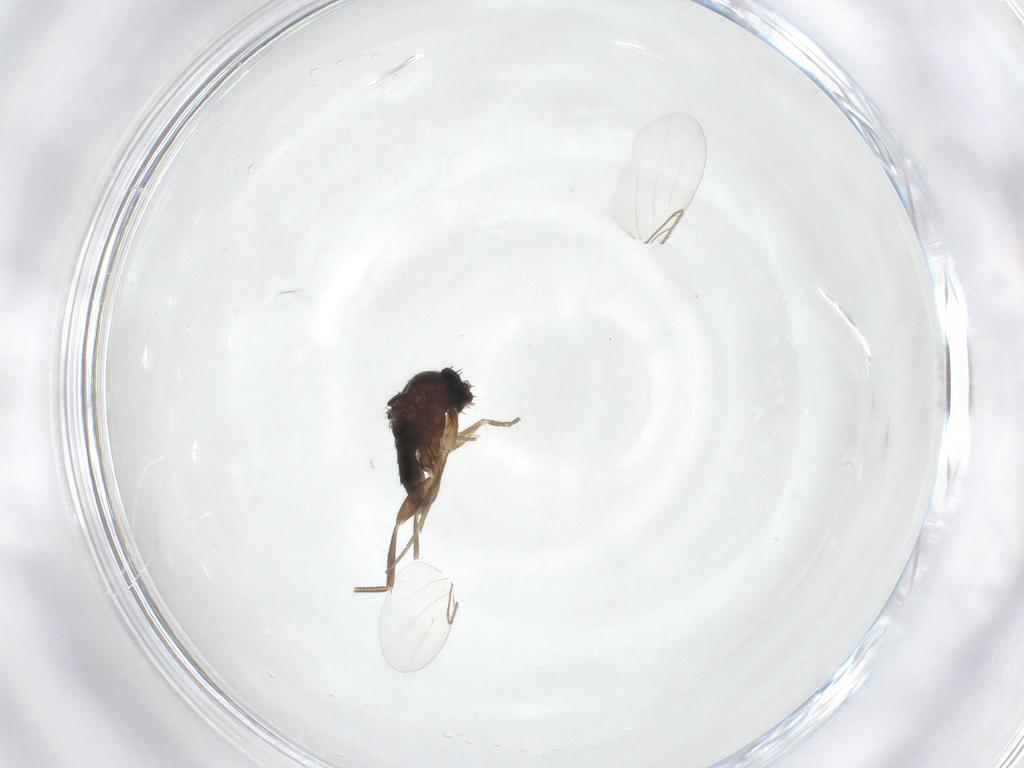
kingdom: Animalia
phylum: Arthropoda
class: Insecta
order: Diptera
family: Phoridae
